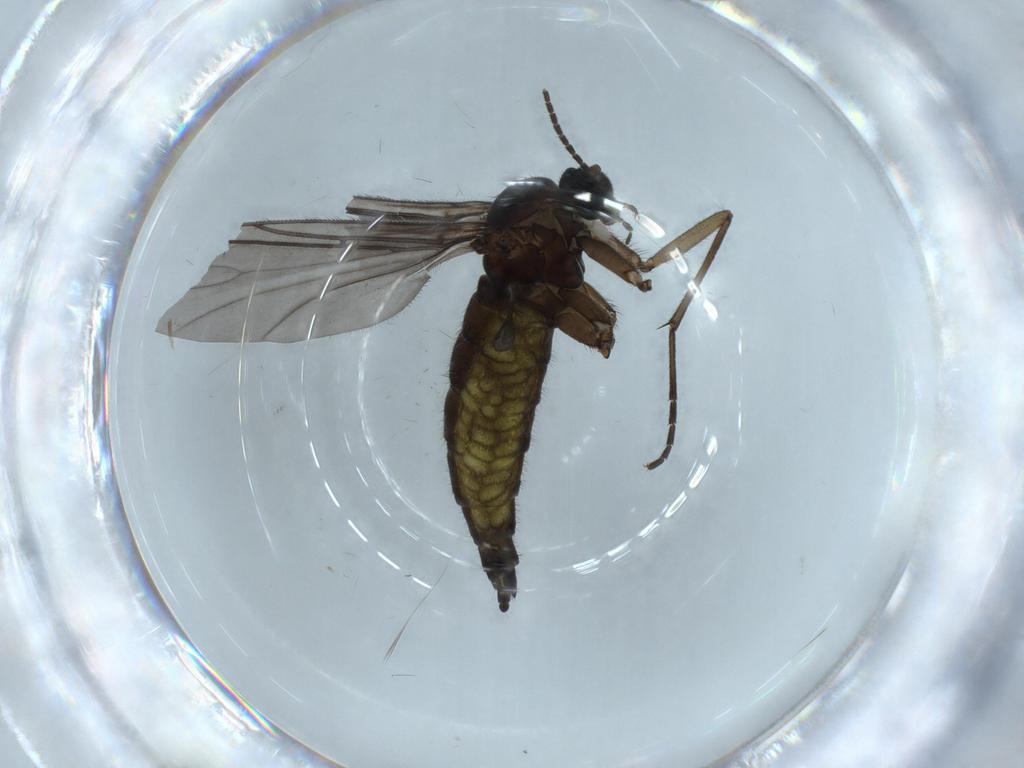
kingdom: Animalia
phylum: Arthropoda
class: Insecta
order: Diptera
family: Sciaridae
